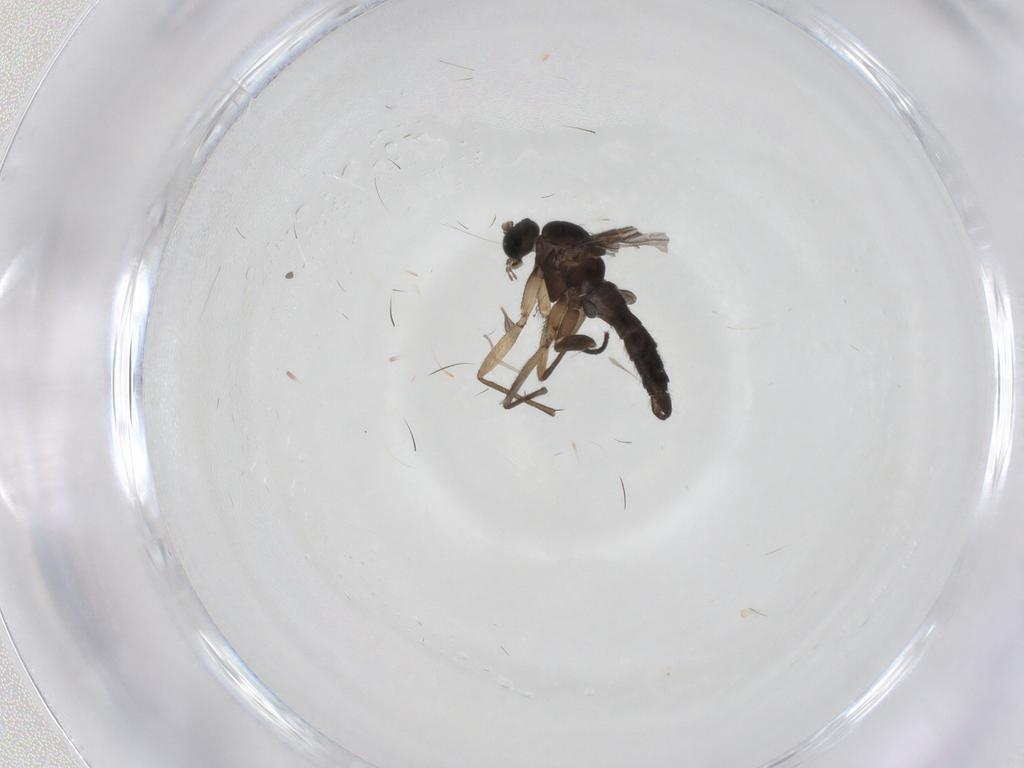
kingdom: Animalia
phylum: Arthropoda
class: Insecta
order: Diptera
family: Sciaridae
